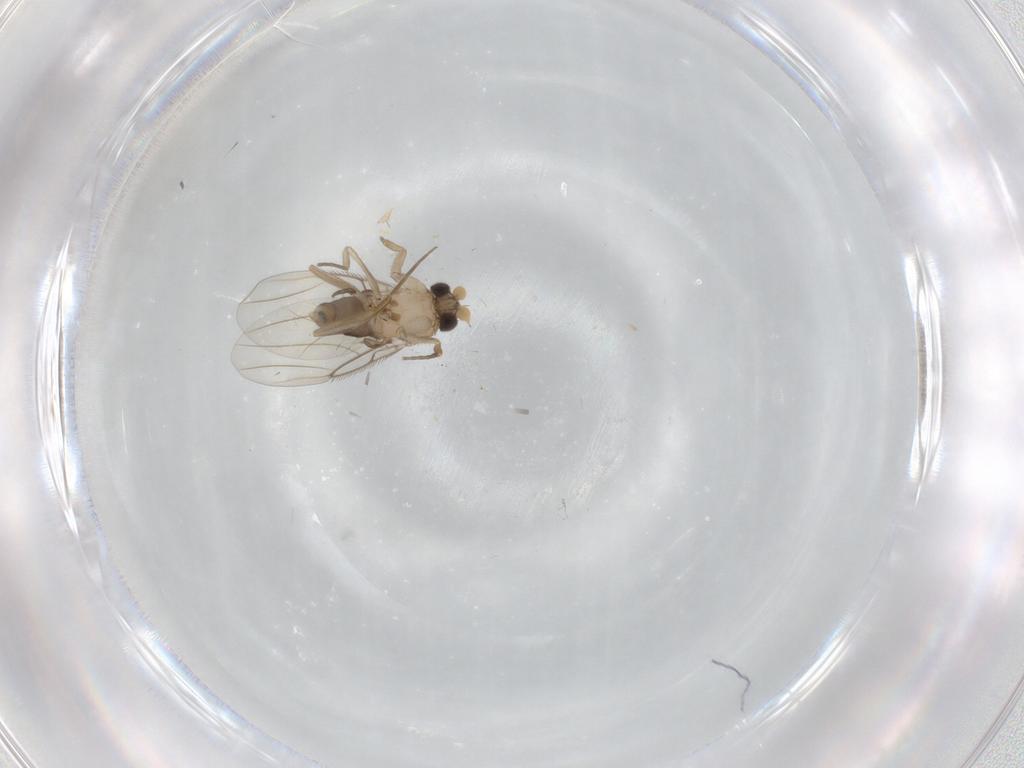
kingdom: Animalia
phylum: Arthropoda
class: Insecta
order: Diptera
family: Phoridae
